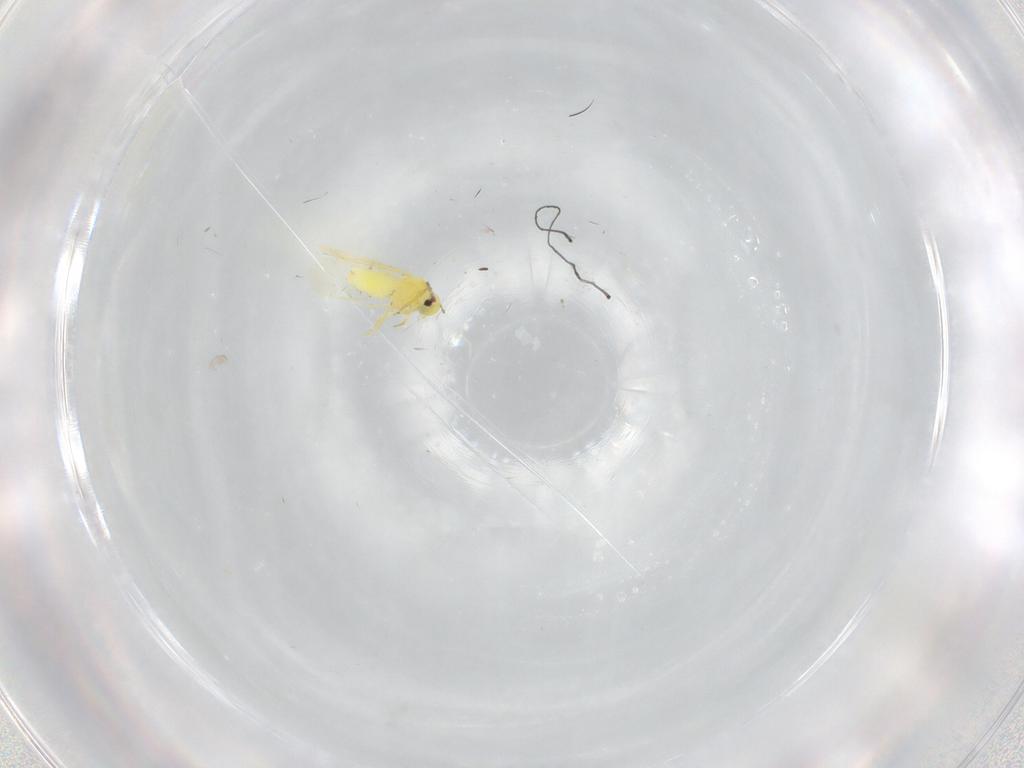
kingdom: Animalia
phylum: Arthropoda
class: Insecta
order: Hemiptera
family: Aleyrodidae
